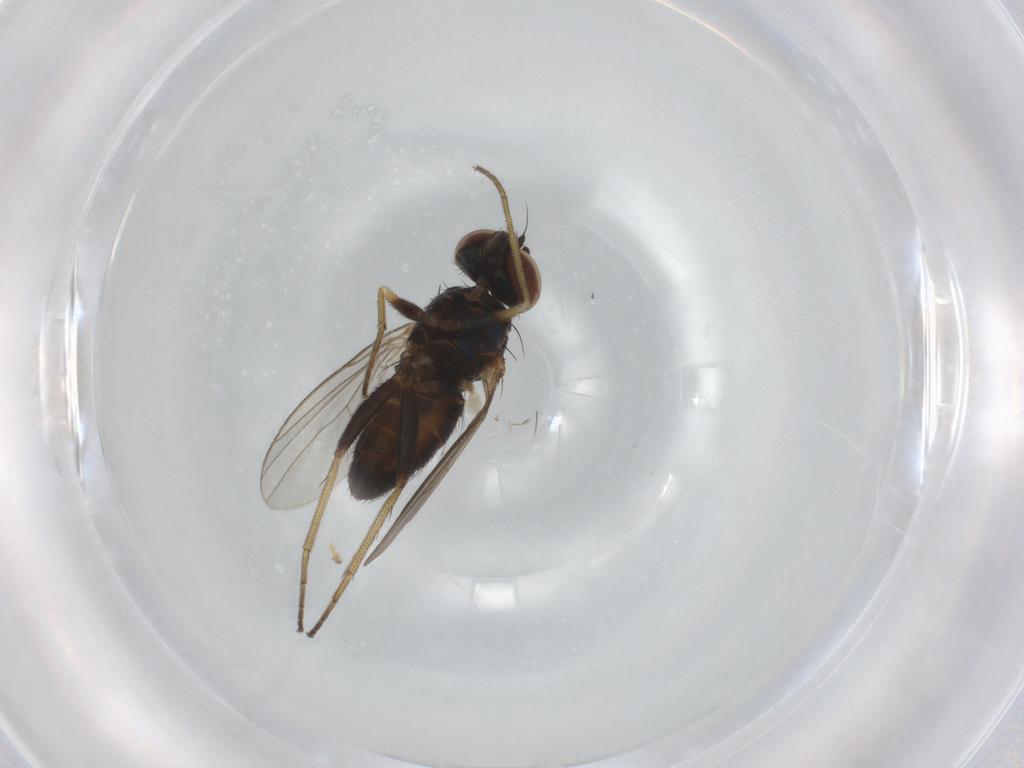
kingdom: Animalia
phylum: Arthropoda
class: Insecta
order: Diptera
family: Dolichopodidae
